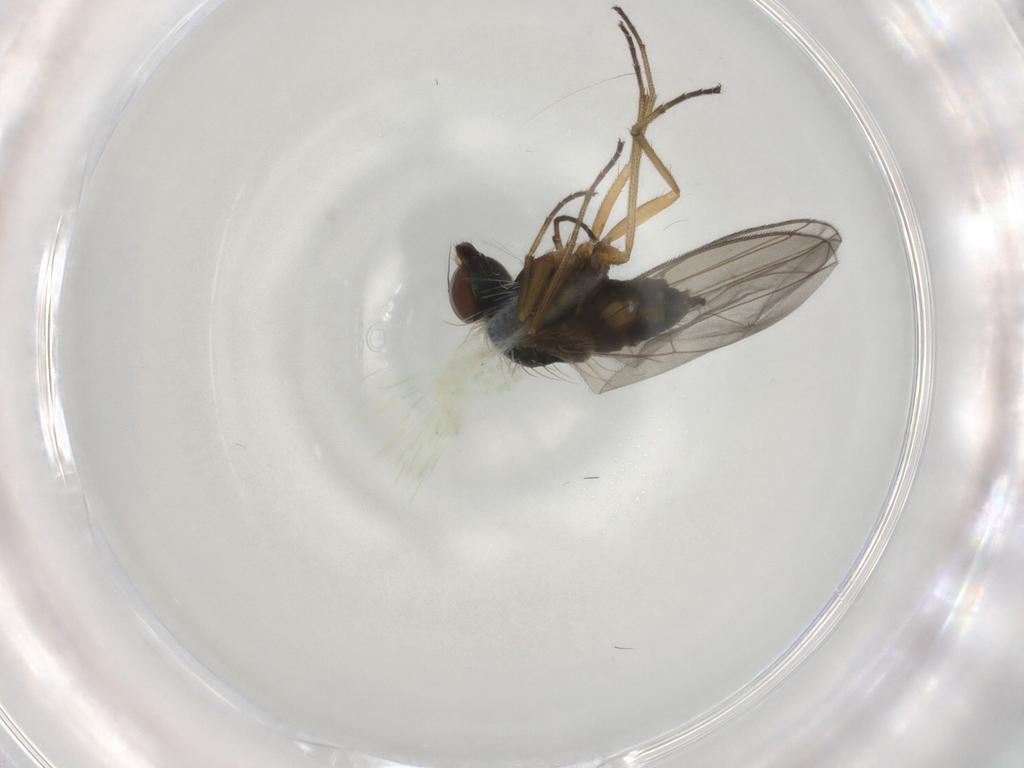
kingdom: Animalia
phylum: Arthropoda
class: Insecta
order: Diptera
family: Dolichopodidae
